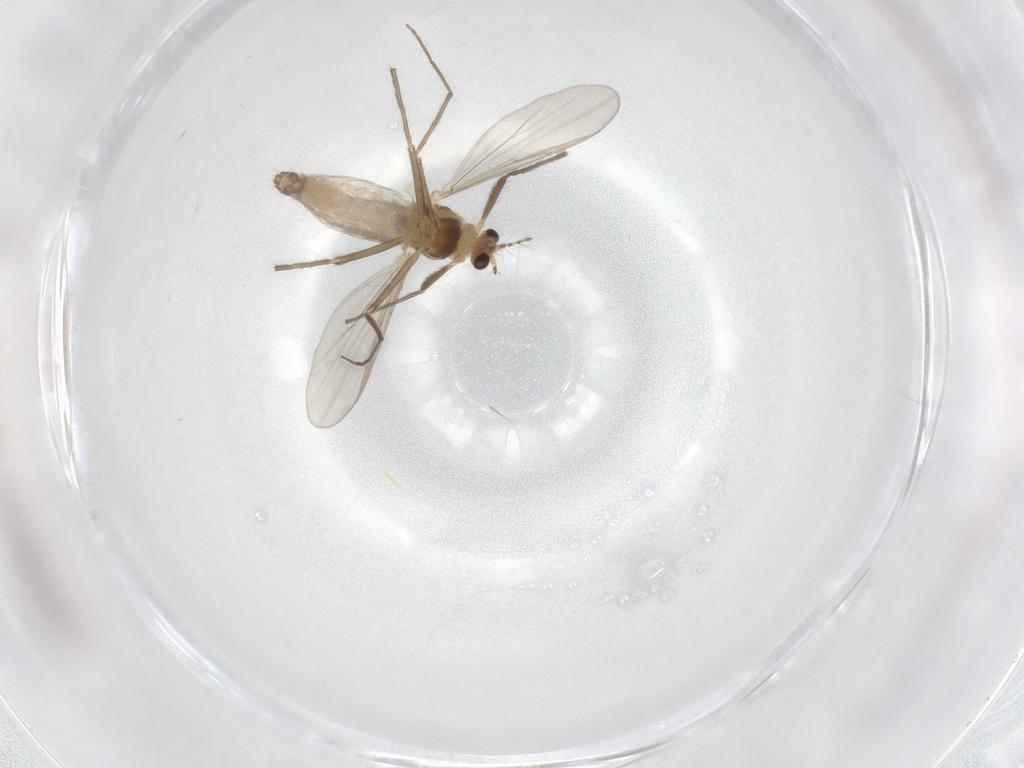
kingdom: Animalia
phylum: Arthropoda
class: Insecta
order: Diptera
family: Chironomidae
